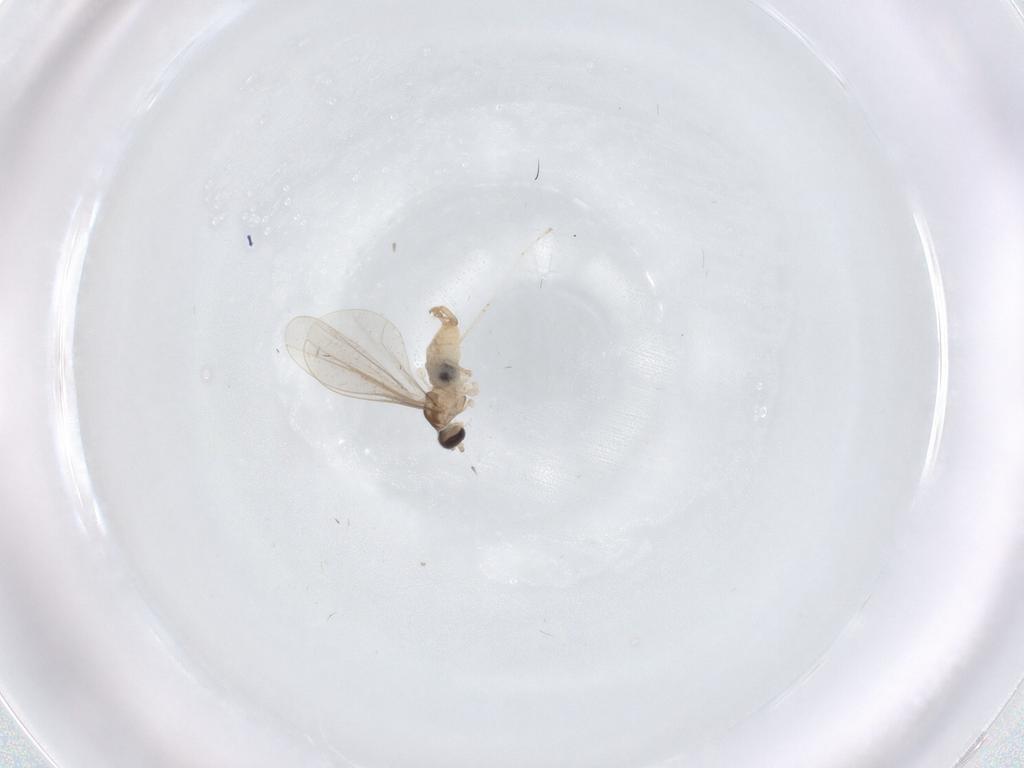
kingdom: Animalia
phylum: Arthropoda
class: Insecta
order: Diptera
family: Cecidomyiidae
